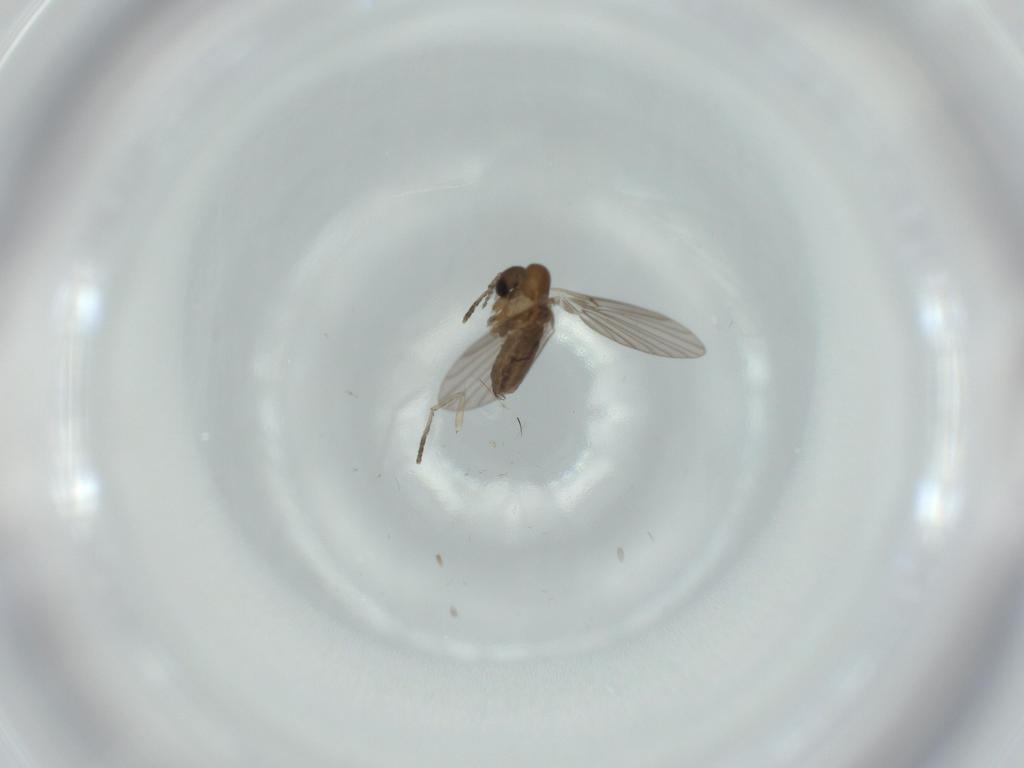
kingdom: Animalia
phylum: Arthropoda
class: Insecta
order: Diptera
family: Psychodidae
